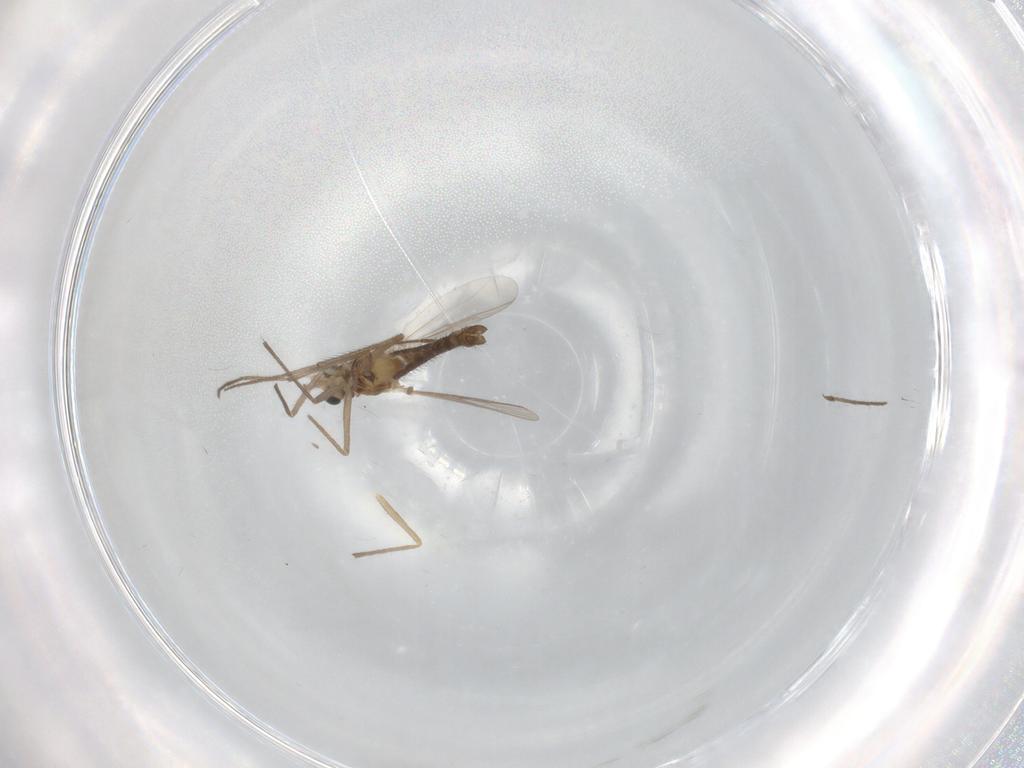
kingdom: Animalia
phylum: Arthropoda
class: Insecta
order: Diptera
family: Chironomidae
